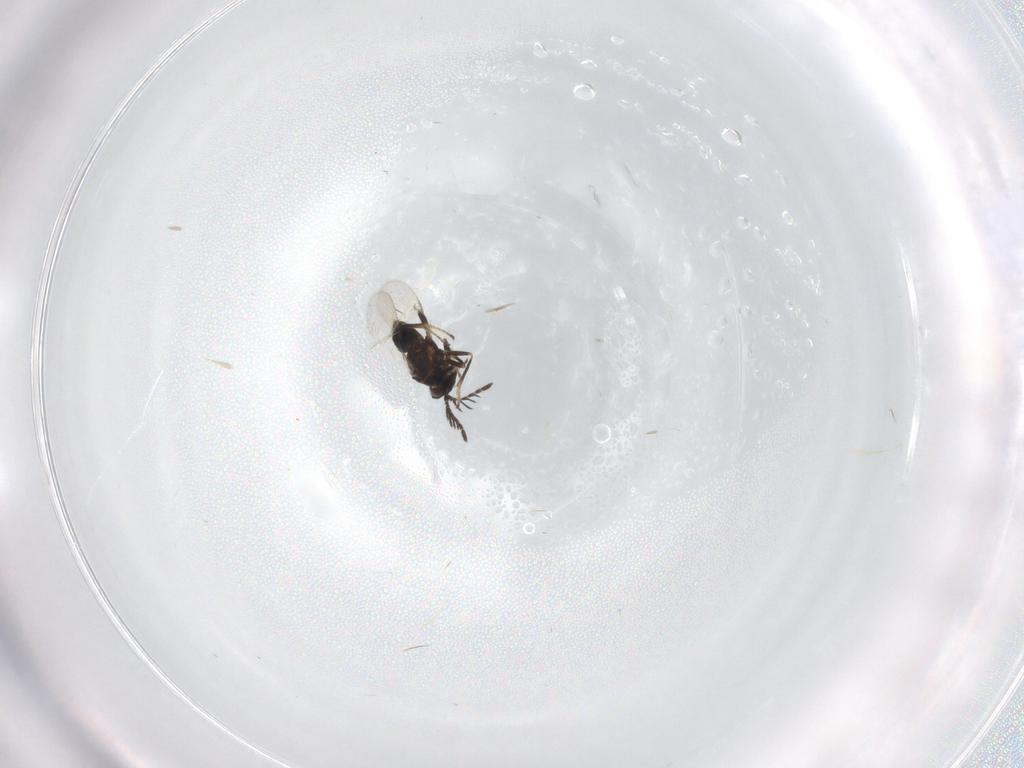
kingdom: Animalia
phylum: Arthropoda
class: Insecta
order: Hymenoptera
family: Encyrtidae
